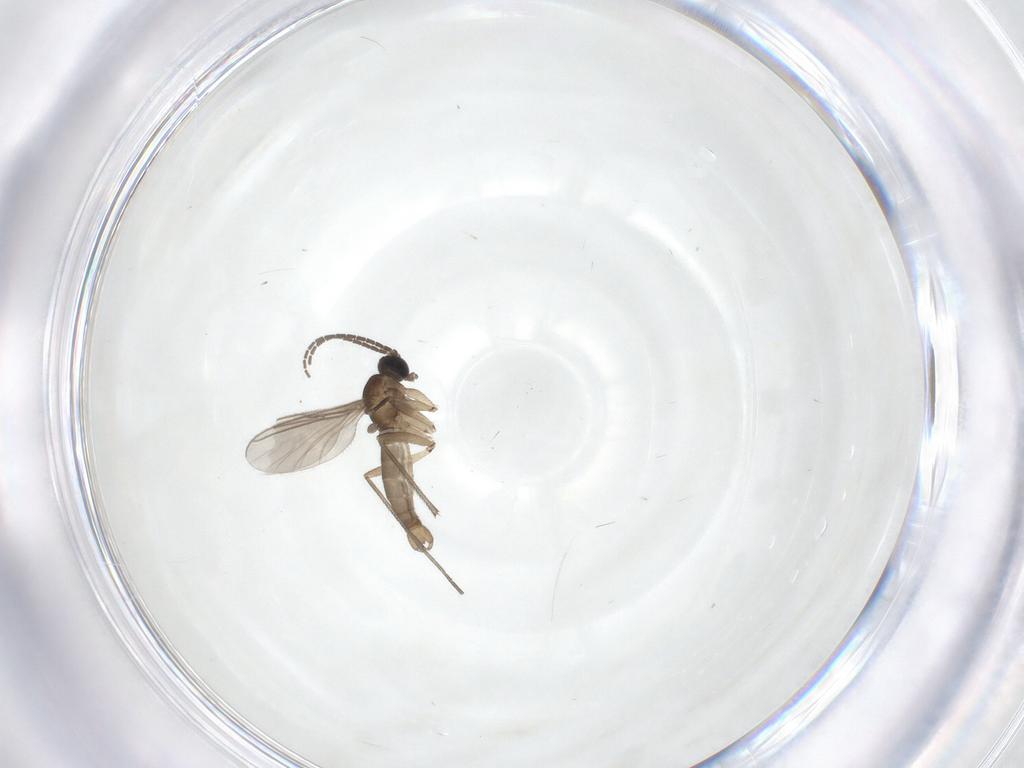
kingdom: Animalia
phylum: Arthropoda
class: Insecta
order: Diptera
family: Sciaridae
